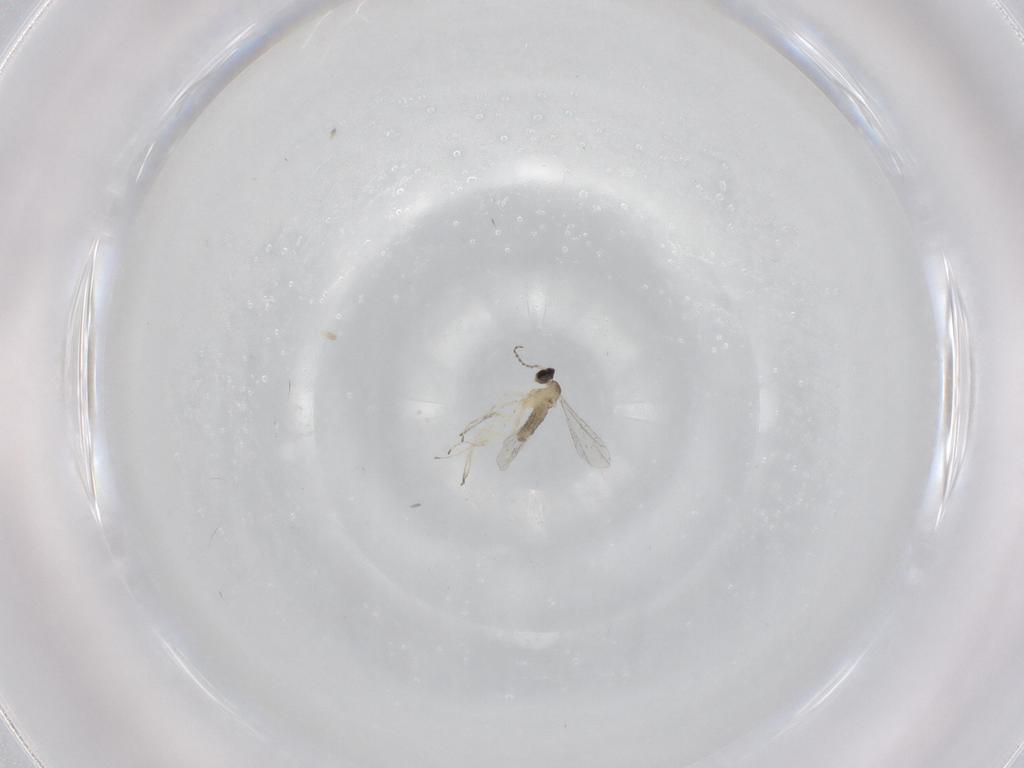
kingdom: Animalia
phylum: Arthropoda
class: Insecta
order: Diptera
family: Cecidomyiidae
